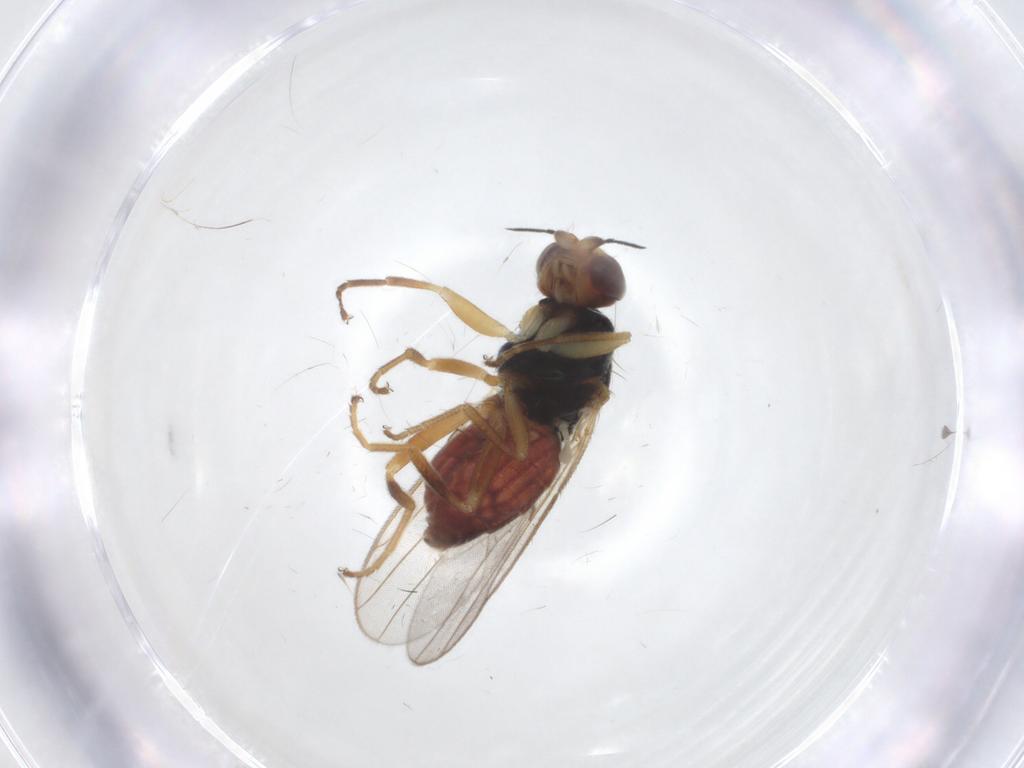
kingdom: Animalia
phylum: Arthropoda
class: Insecta
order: Diptera
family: Chloropidae
